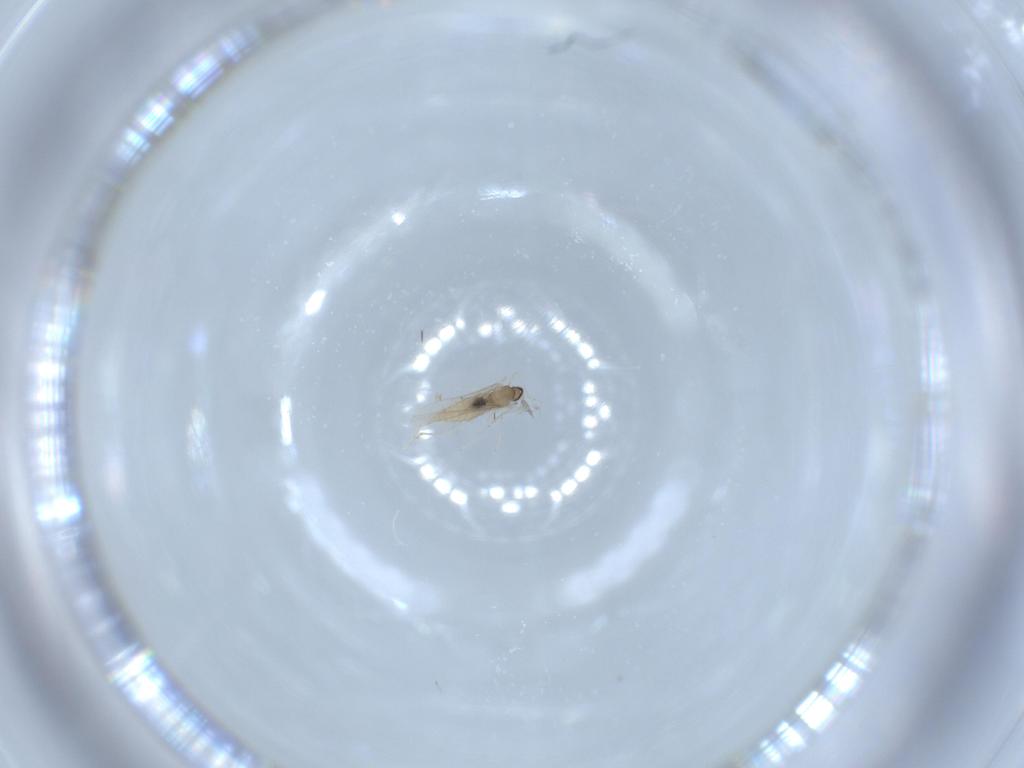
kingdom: Animalia
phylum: Arthropoda
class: Insecta
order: Diptera
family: Cecidomyiidae
